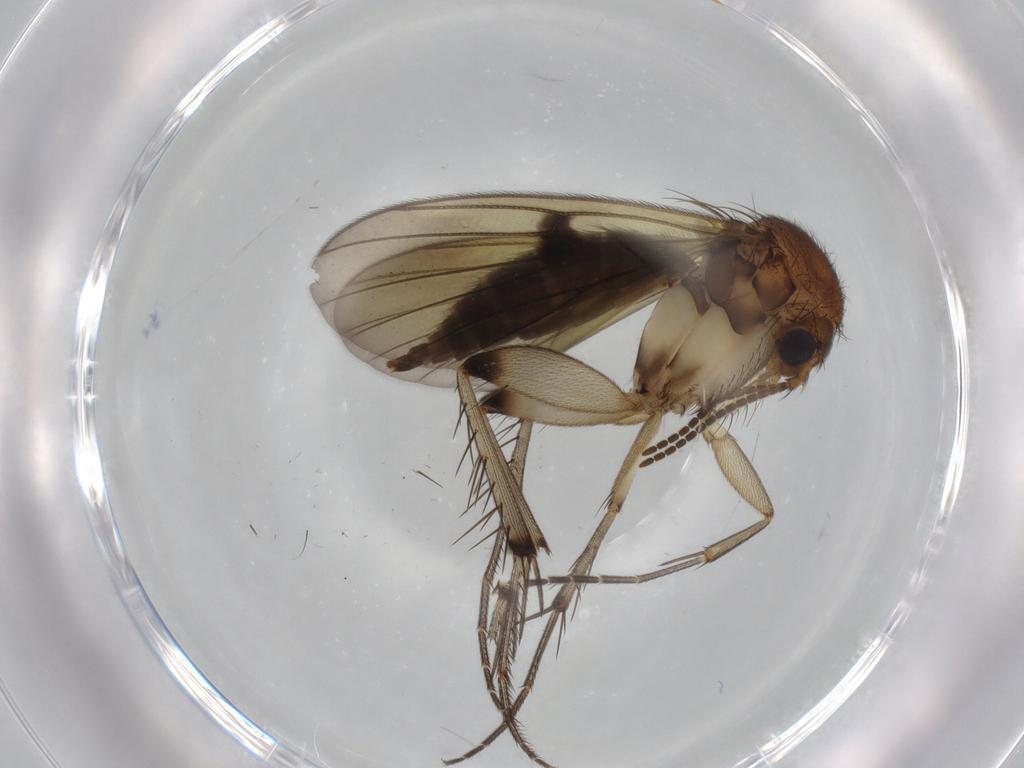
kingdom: Animalia
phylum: Arthropoda
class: Insecta
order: Diptera
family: Mycetophilidae
